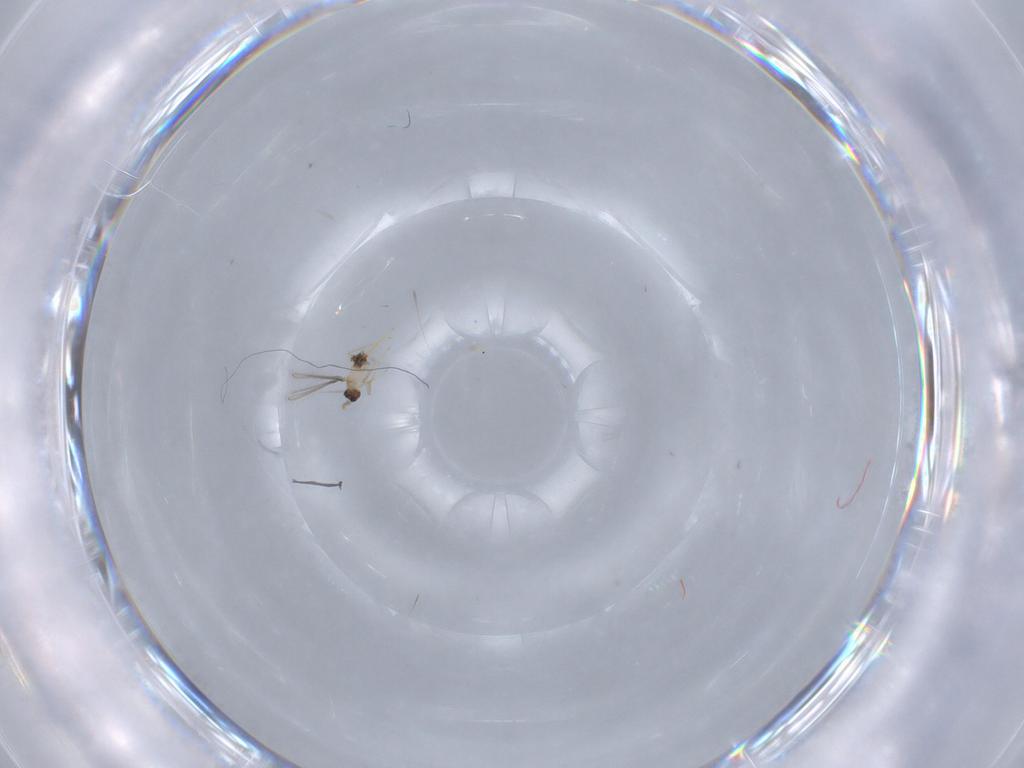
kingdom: Animalia
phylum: Arthropoda
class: Insecta
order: Hymenoptera
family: Mymaridae
